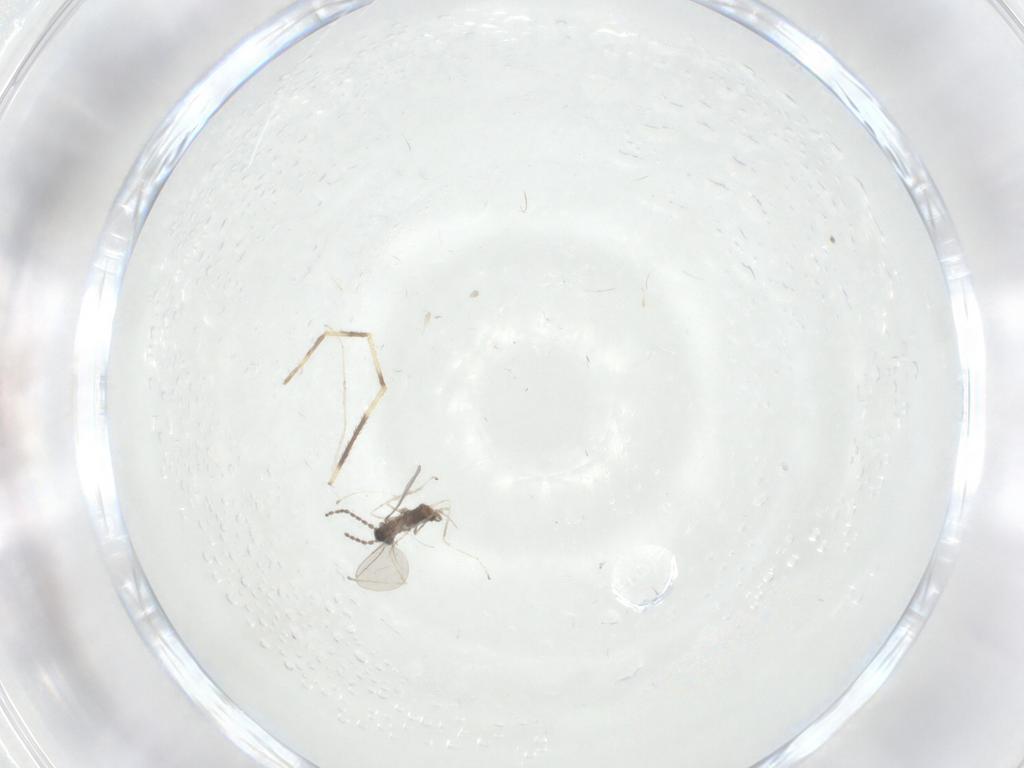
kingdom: Animalia
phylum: Arthropoda
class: Insecta
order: Diptera
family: Cecidomyiidae
